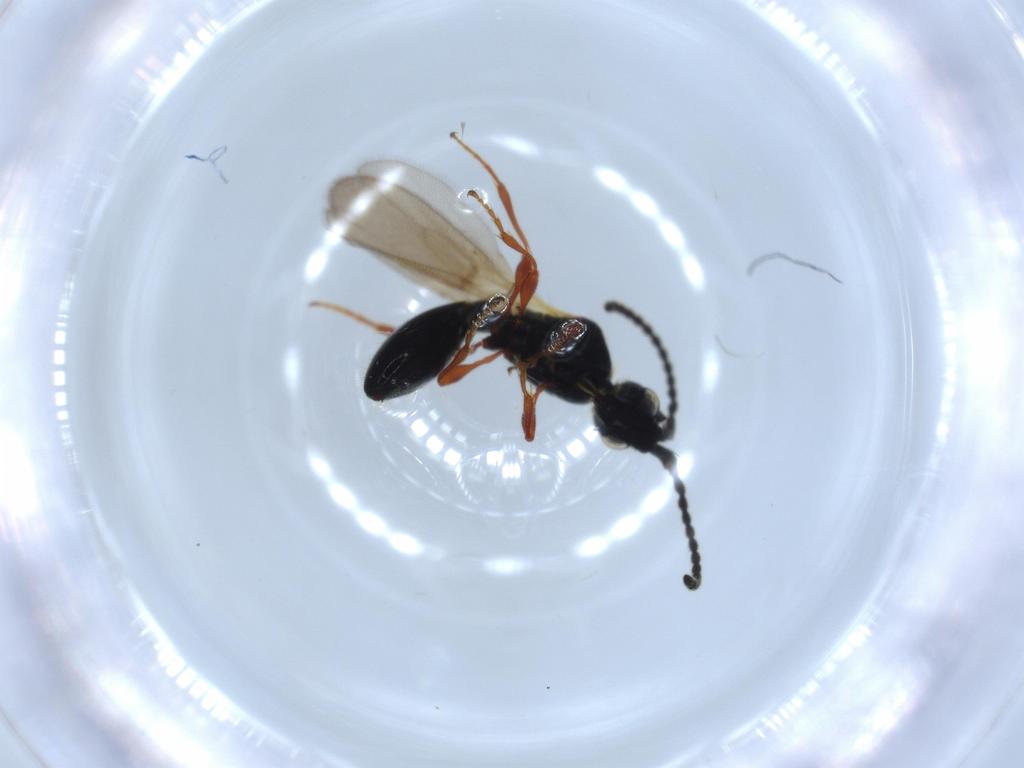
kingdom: Animalia
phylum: Arthropoda
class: Insecta
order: Hymenoptera
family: Diapriidae
